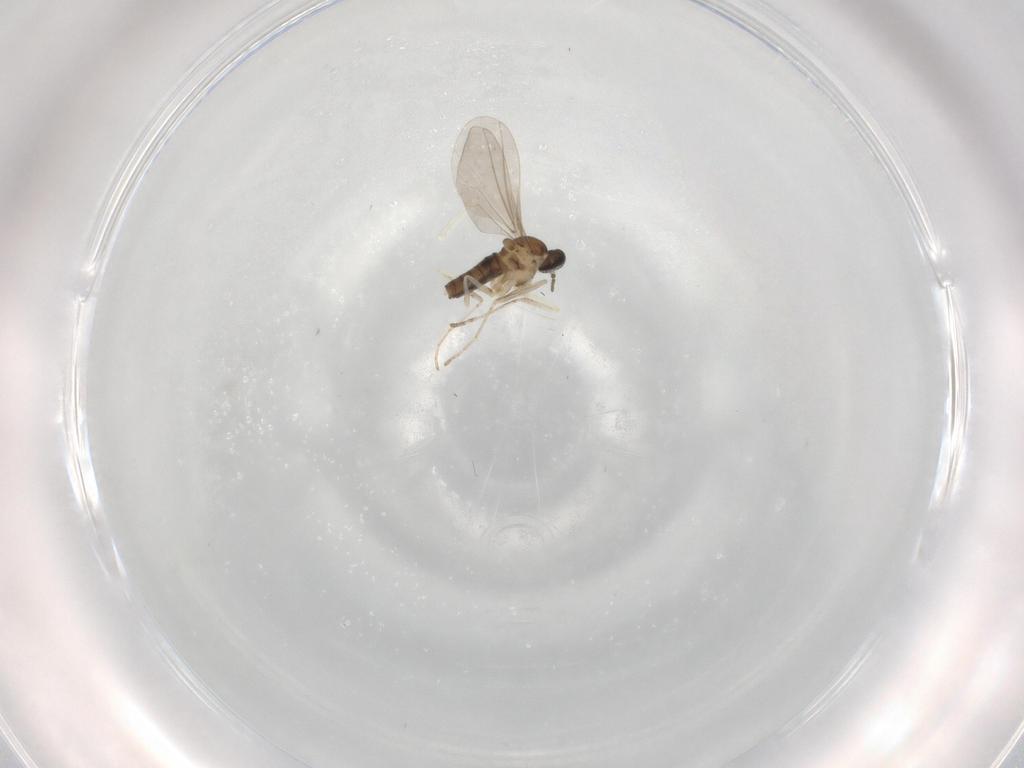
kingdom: Animalia
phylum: Arthropoda
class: Insecta
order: Diptera
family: Cecidomyiidae
